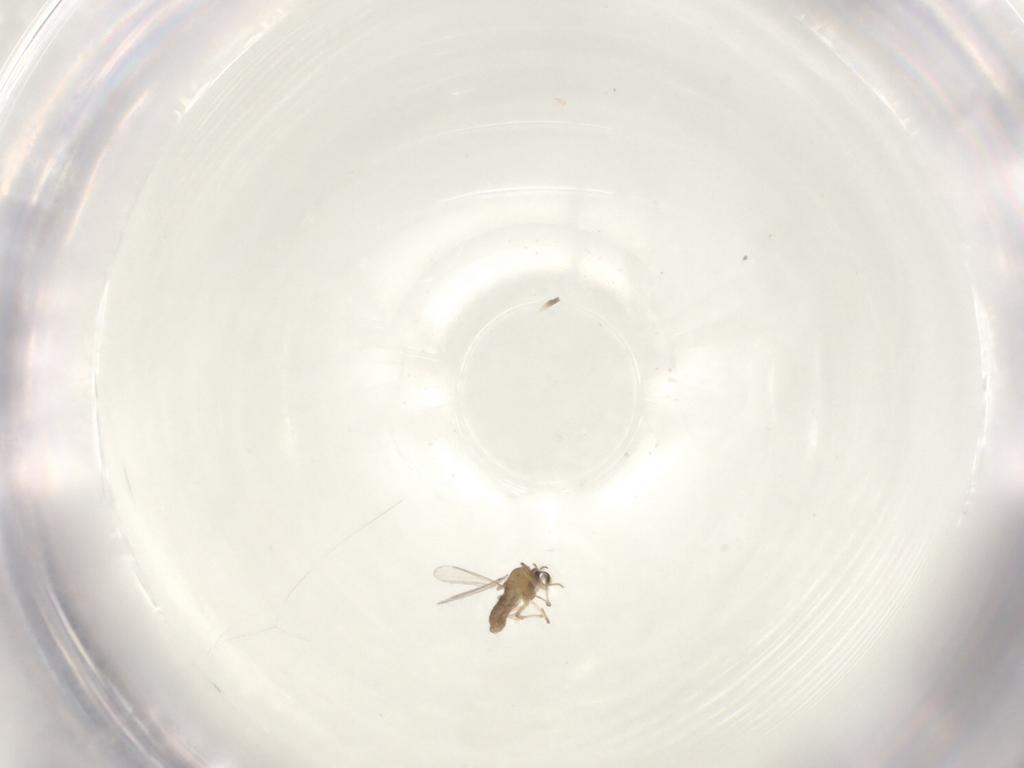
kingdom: Animalia
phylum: Arthropoda
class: Insecta
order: Diptera
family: Chironomidae
